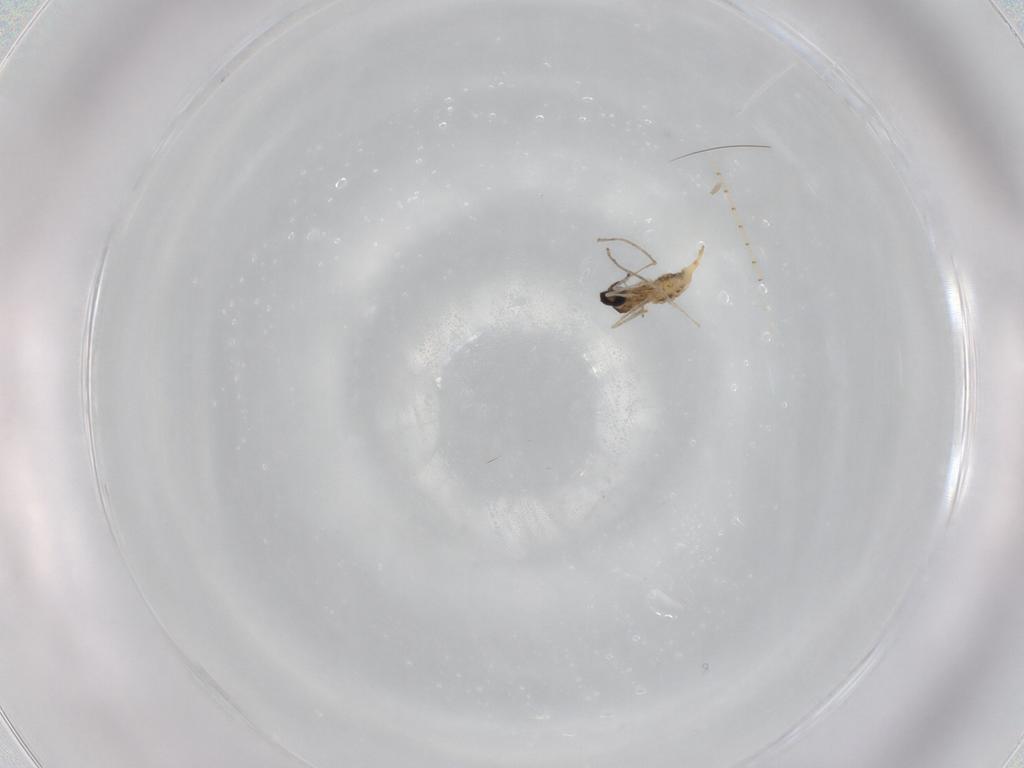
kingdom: Animalia
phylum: Arthropoda
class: Insecta
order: Diptera
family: Cecidomyiidae
